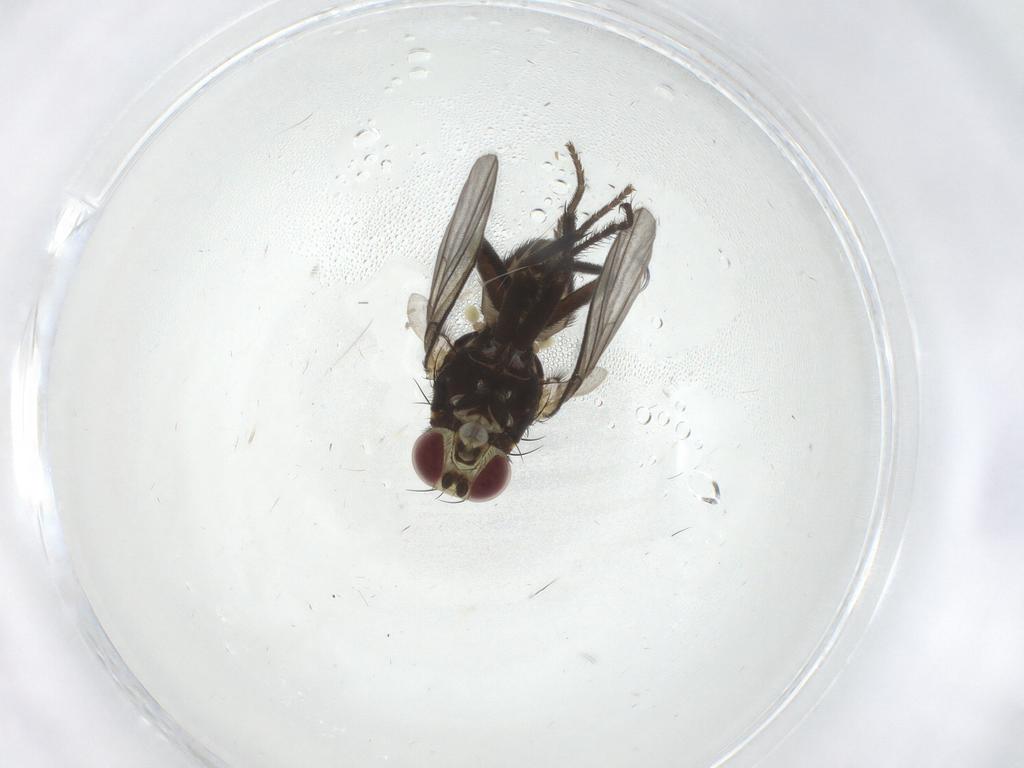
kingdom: Animalia
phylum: Arthropoda
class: Insecta
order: Diptera
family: Agromyzidae
